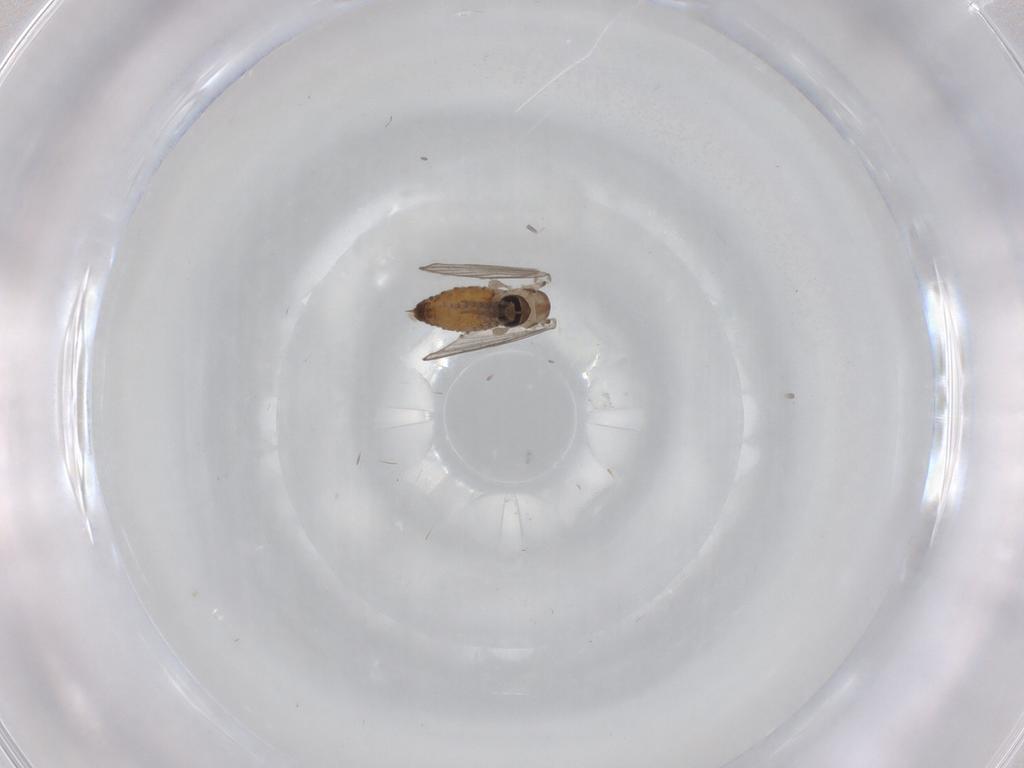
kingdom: Animalia
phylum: Arthropoda
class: Insecta
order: Diptera
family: Psychodidae
